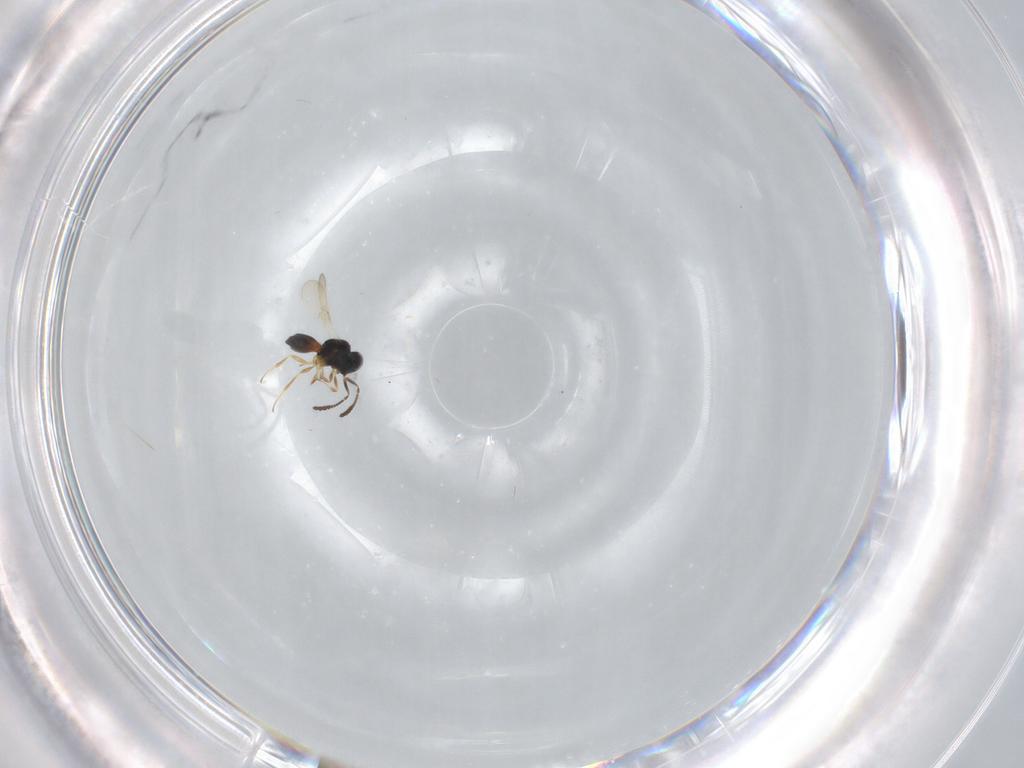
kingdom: Animalia
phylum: Arthropoda
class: Insecta
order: Hymenoptera
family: Scelionidae
